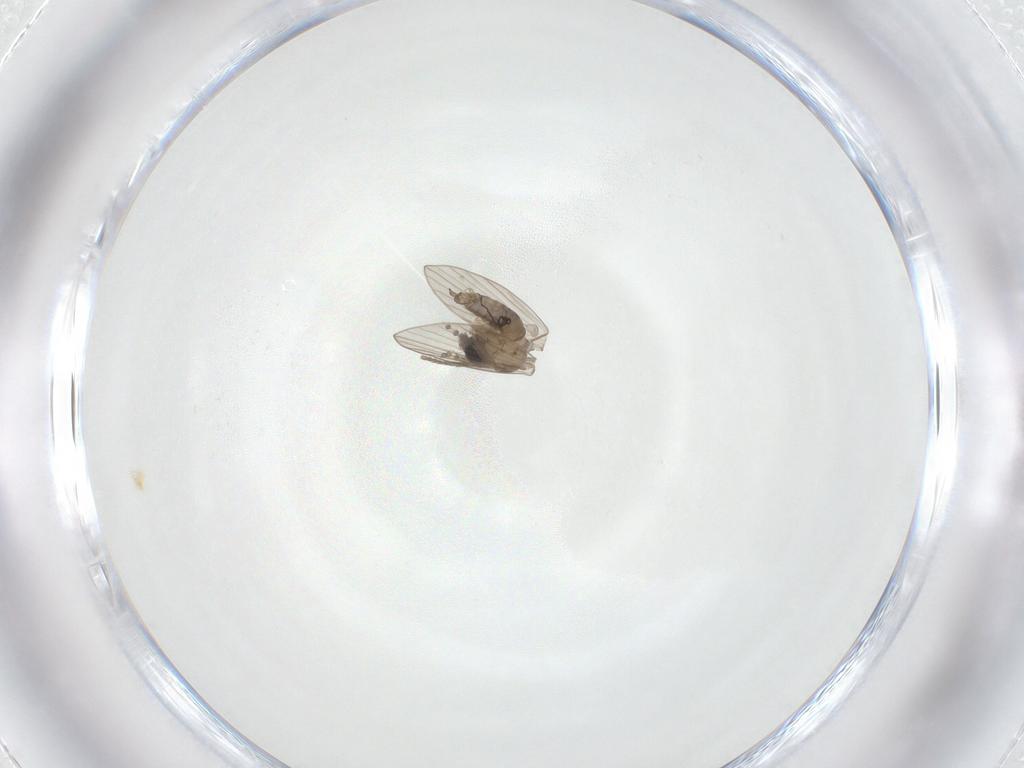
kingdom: Animalia
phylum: Arthropoda
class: Insecta
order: Diptera
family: Psychodidae
